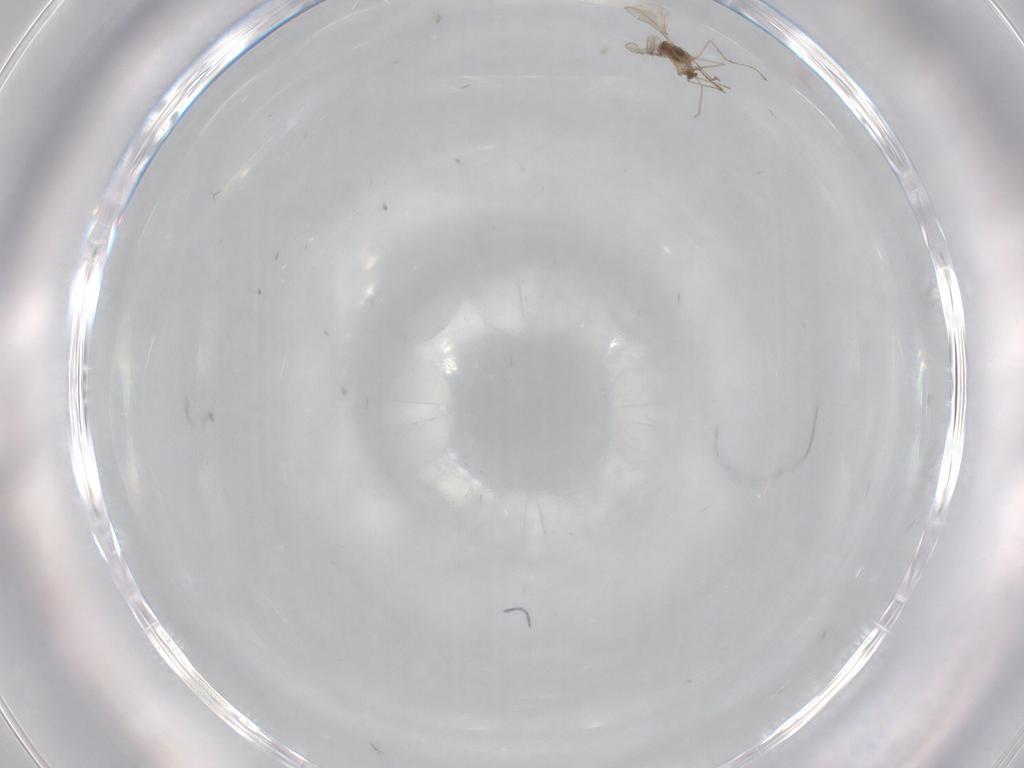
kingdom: Animalia
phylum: Arthropoda
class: Insecta
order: Diptera
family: Cecidomyiidae
